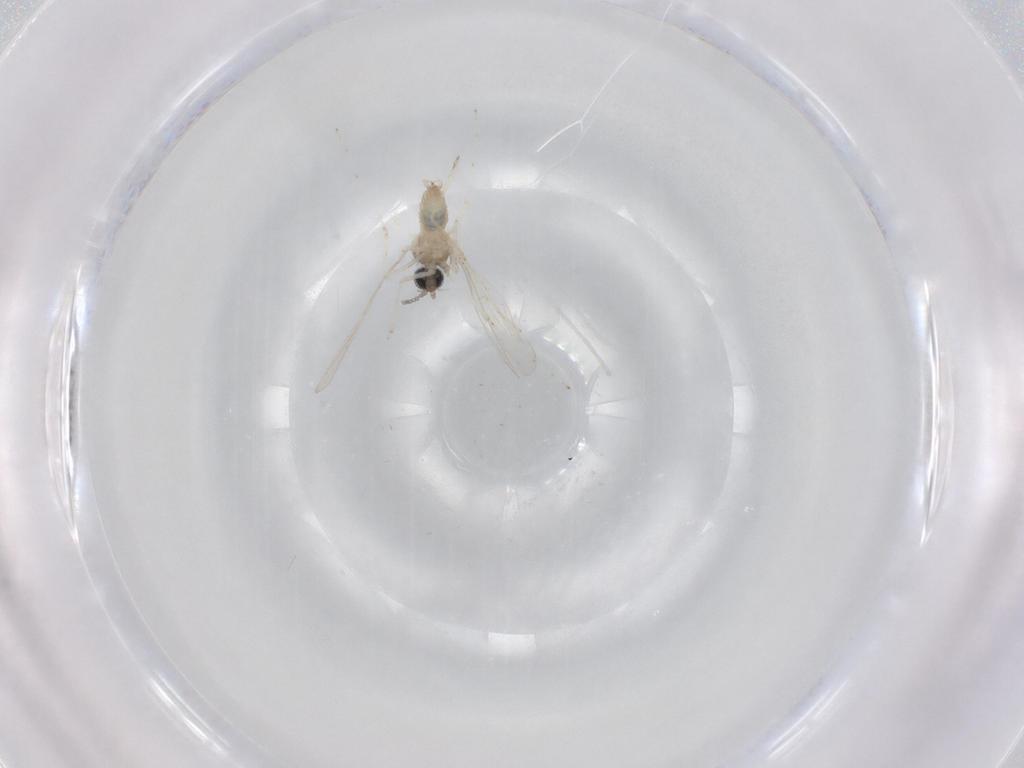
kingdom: Animalia
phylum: Arthropoda
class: Insecta
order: Diptera
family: Cecidomyiidae
